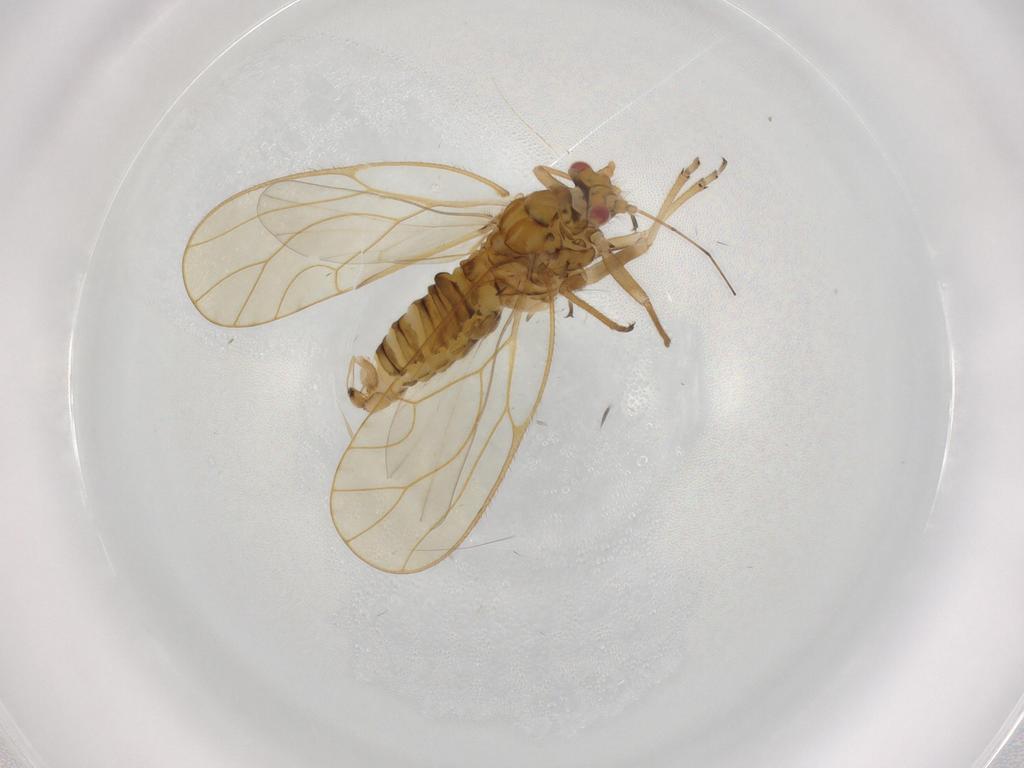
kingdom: Animalia
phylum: Arthropoda
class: Insecta
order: Hemiptera
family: Psyllidae
